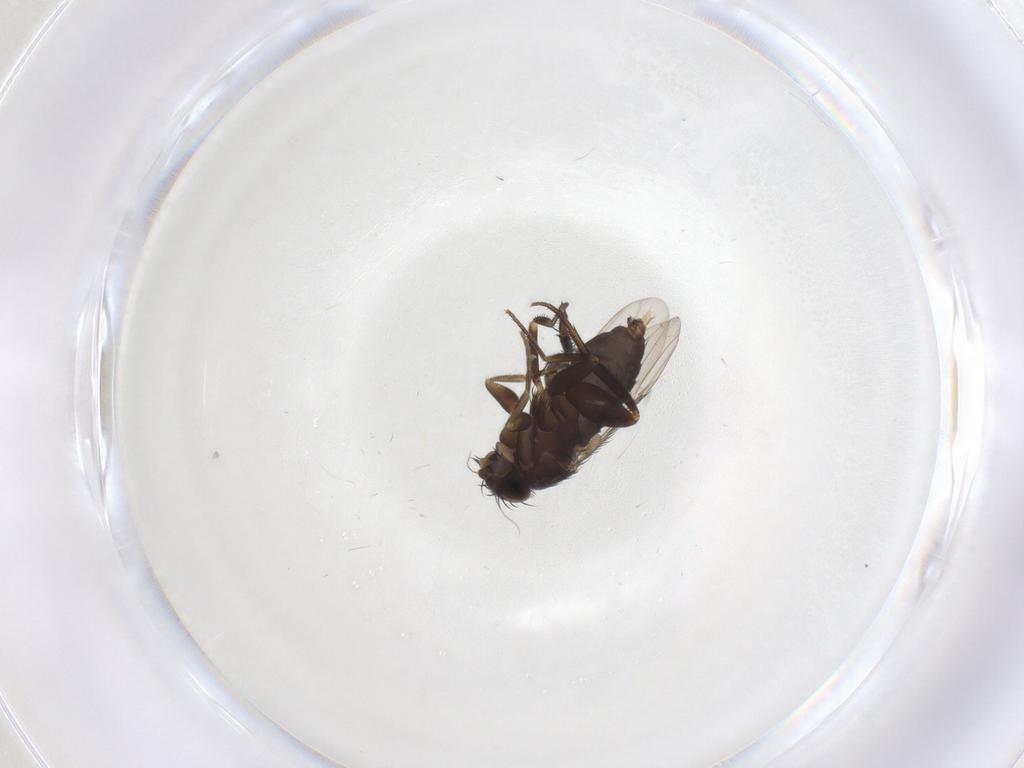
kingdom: Animalia
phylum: Arthropoda
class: Insecta
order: Diptera
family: Phoridae
